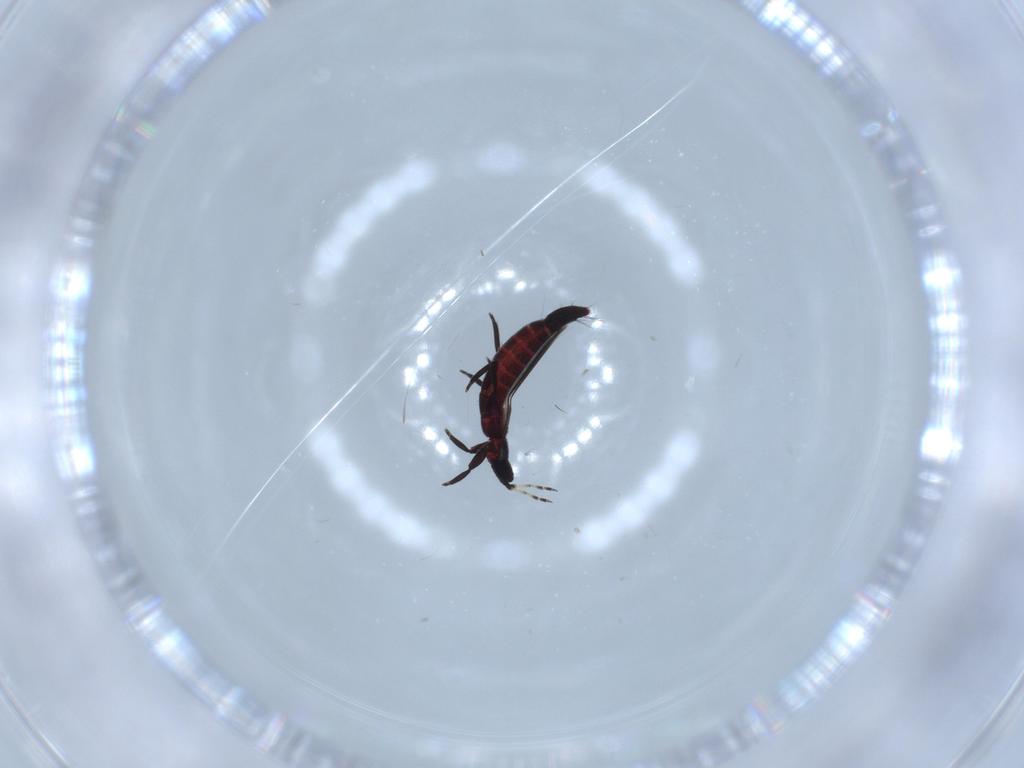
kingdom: Animalia
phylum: Arthropoda
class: Insecta
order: Thysanoptera
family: Aeolothripidae
